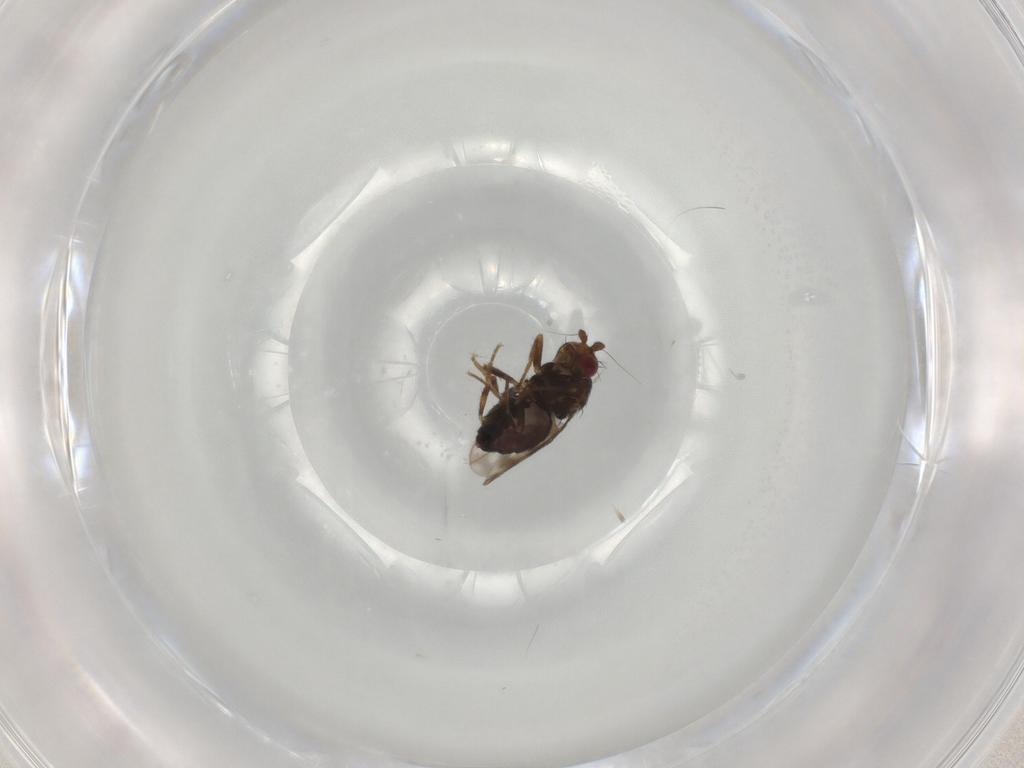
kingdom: Animalia
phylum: Arthropoda
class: Insecta
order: Diptera
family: Sphaeroceridae
